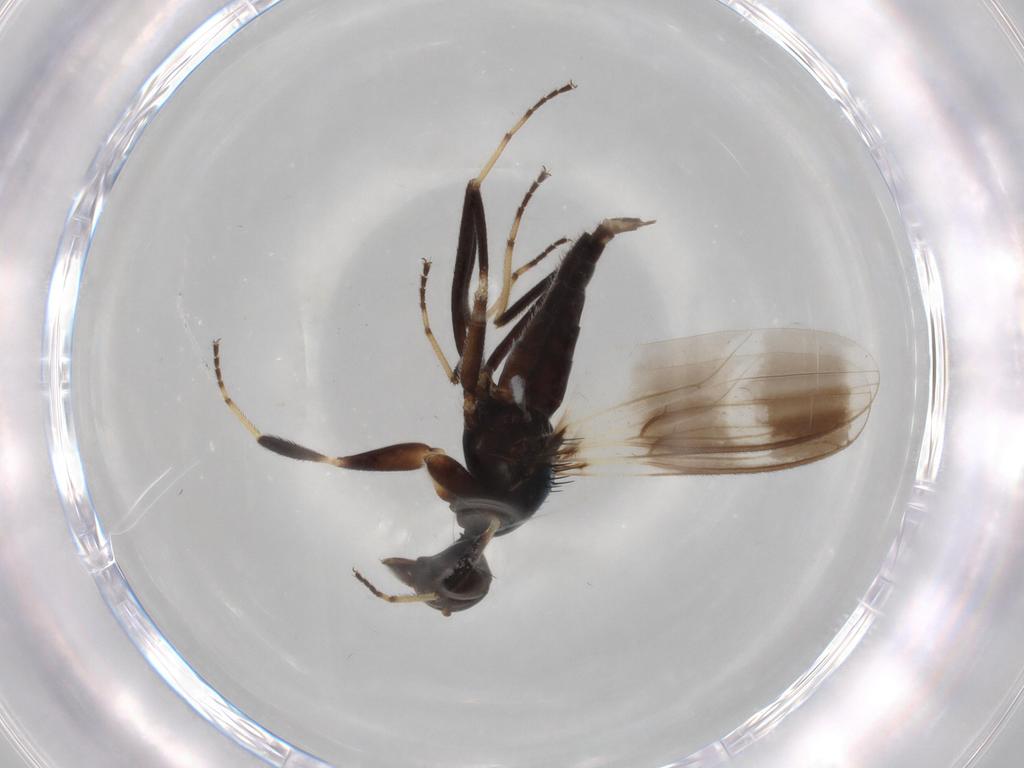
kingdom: Animalia
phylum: Arthropoda
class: Insecta
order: Diptera
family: Hybotidae
